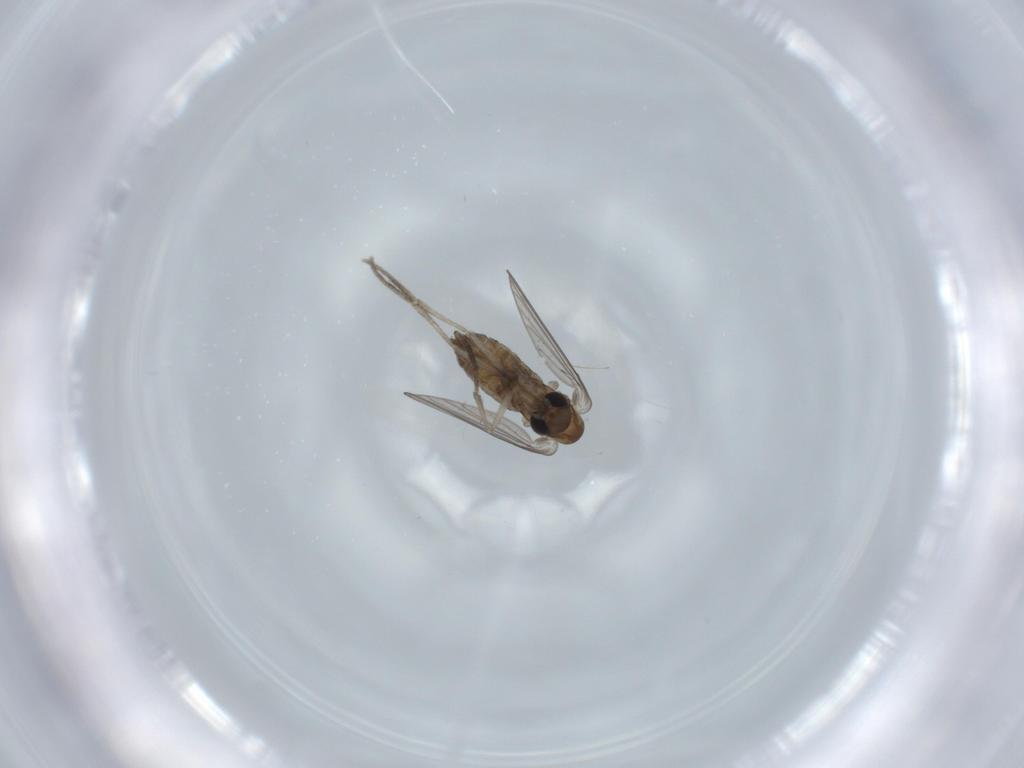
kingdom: Animalia
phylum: Arthropoda
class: Insecta
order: Diptera
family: Psychodidae
